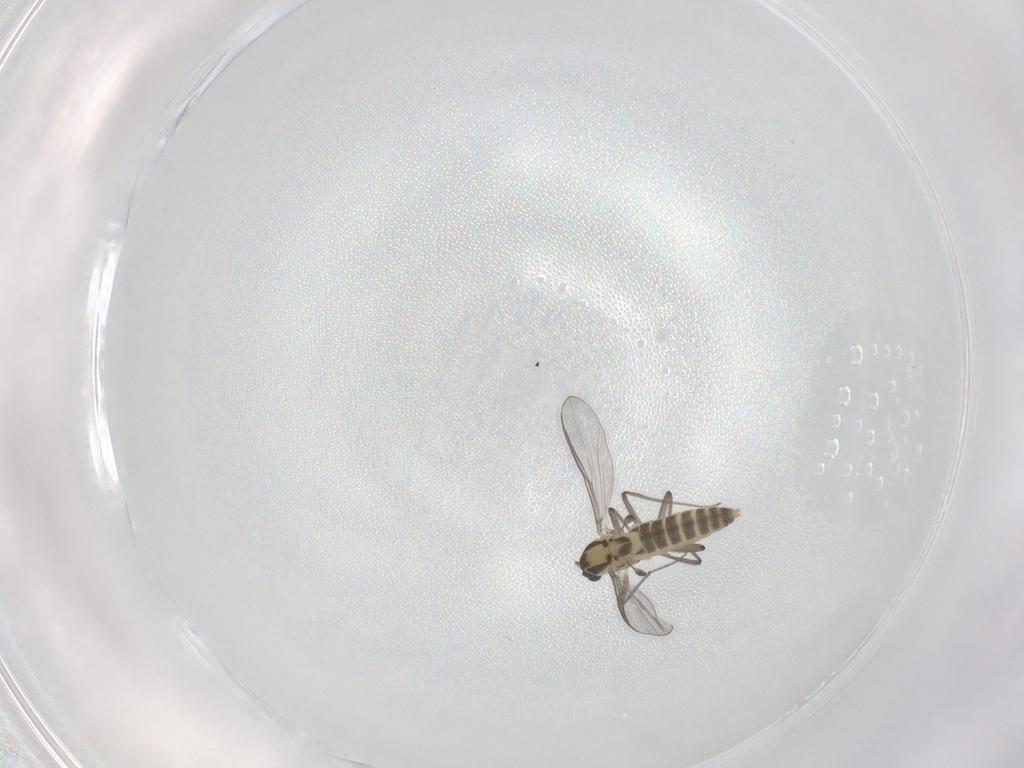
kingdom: Animalia
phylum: Arthropoda
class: Insecta
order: Diptera
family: Chironomidae
